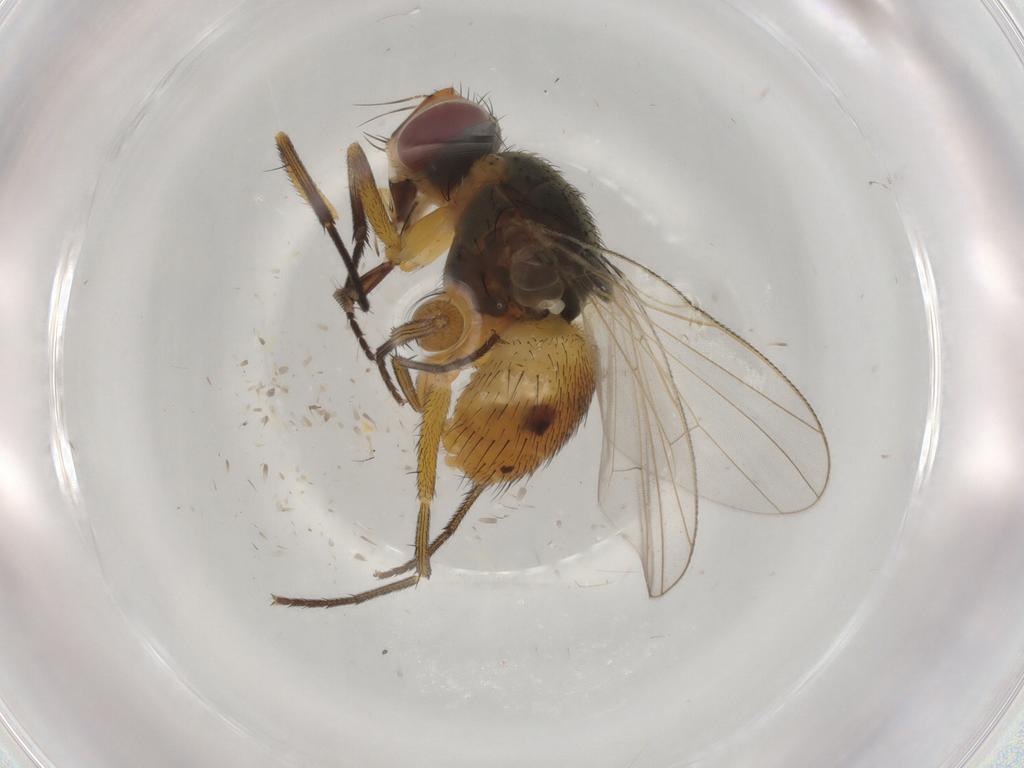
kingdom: Animalia
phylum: Arthropoda
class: Insecta
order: Diptera
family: Muscidae
